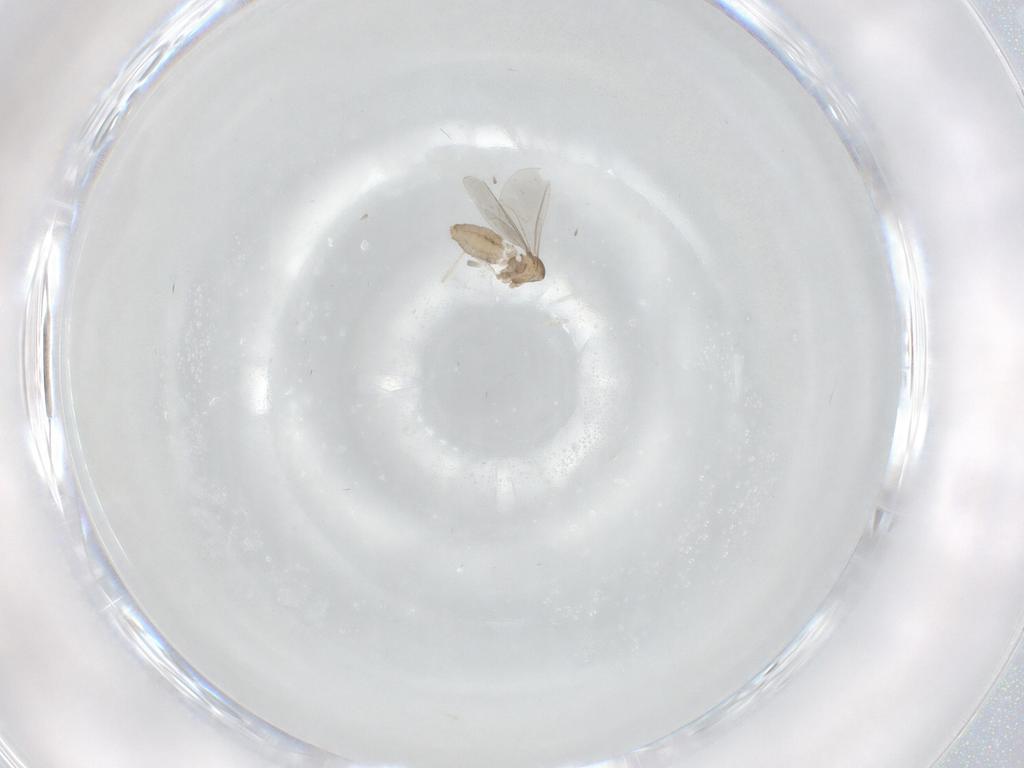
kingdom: Animalia
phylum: Arthropoda
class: Insecta
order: Diptera
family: Cecidomyiidae
